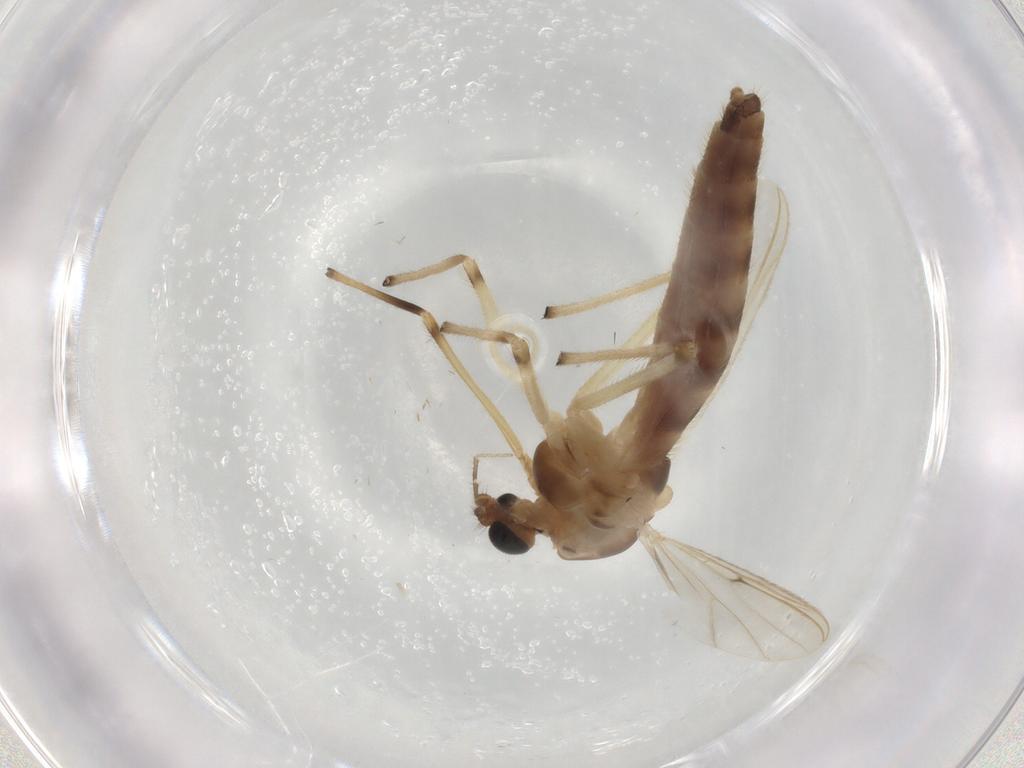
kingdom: Animalia
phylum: Arthropoda
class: Insecta
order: Diptera
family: Chironomidae
